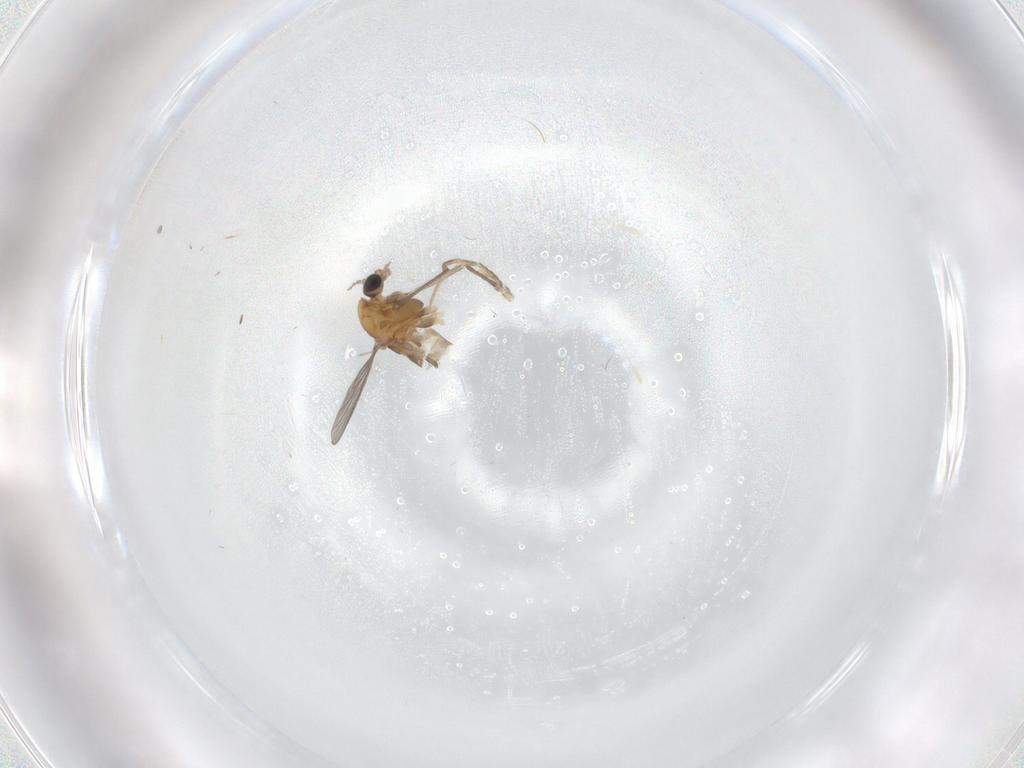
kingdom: Animalia
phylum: Arthropoda
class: Insecta
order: Diptera
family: Chironomidae
